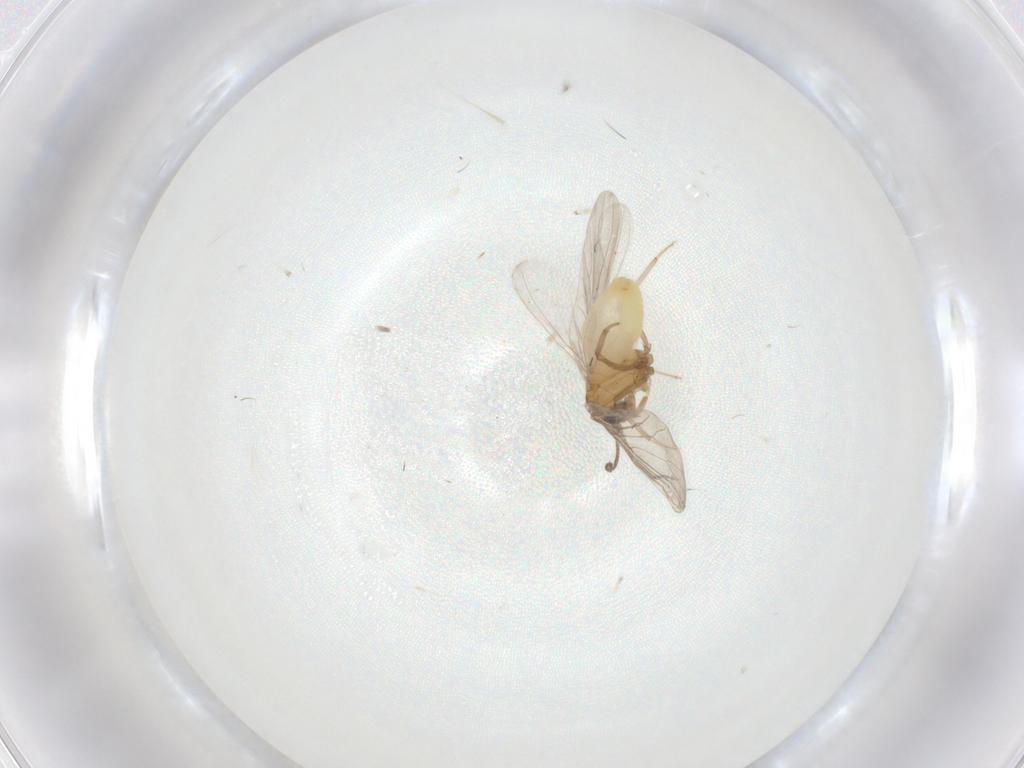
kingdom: Animalia
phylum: Arthropoda
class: Insecta
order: Neuroptera
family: Coniopterygidae
